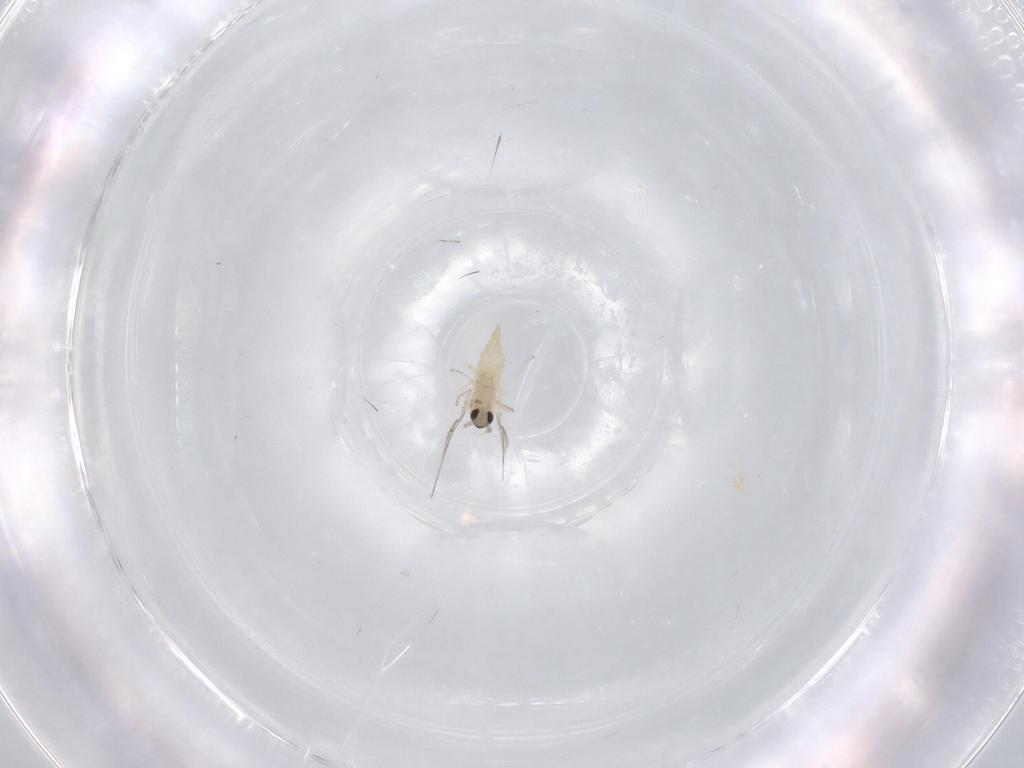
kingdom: Animalia
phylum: Arthropoda
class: Insecta
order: Diptera
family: Cecidomyiidae
